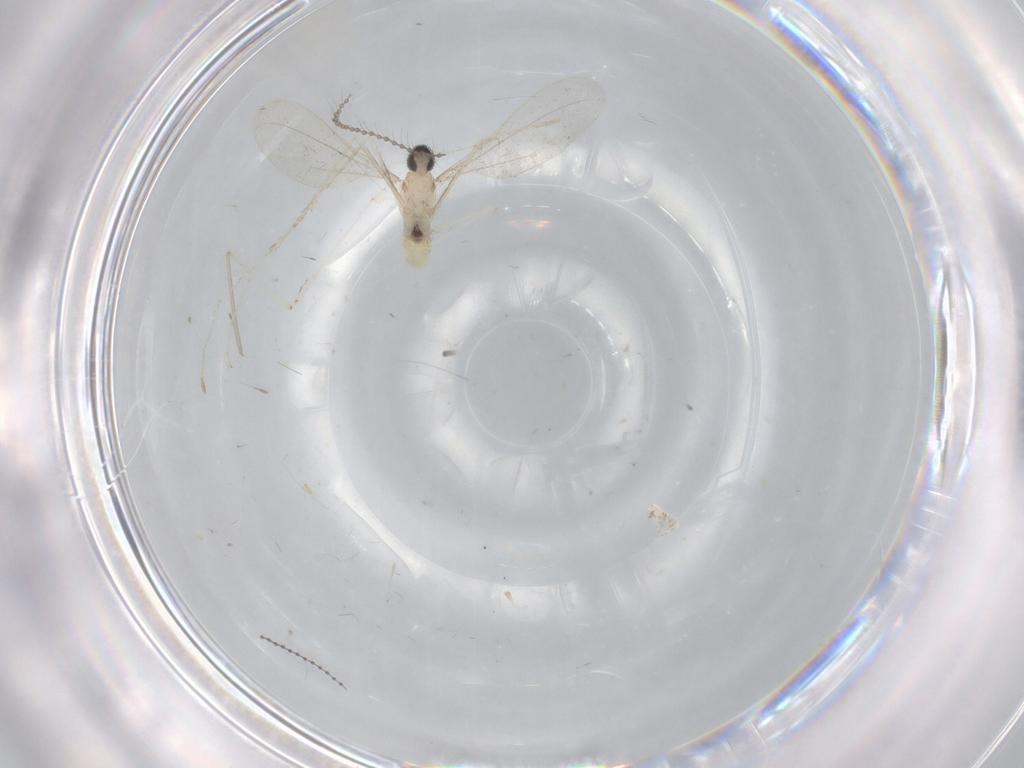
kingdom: Animalia
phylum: Arthropoda
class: Insecta
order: Diptera
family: Cecidomyiidae
